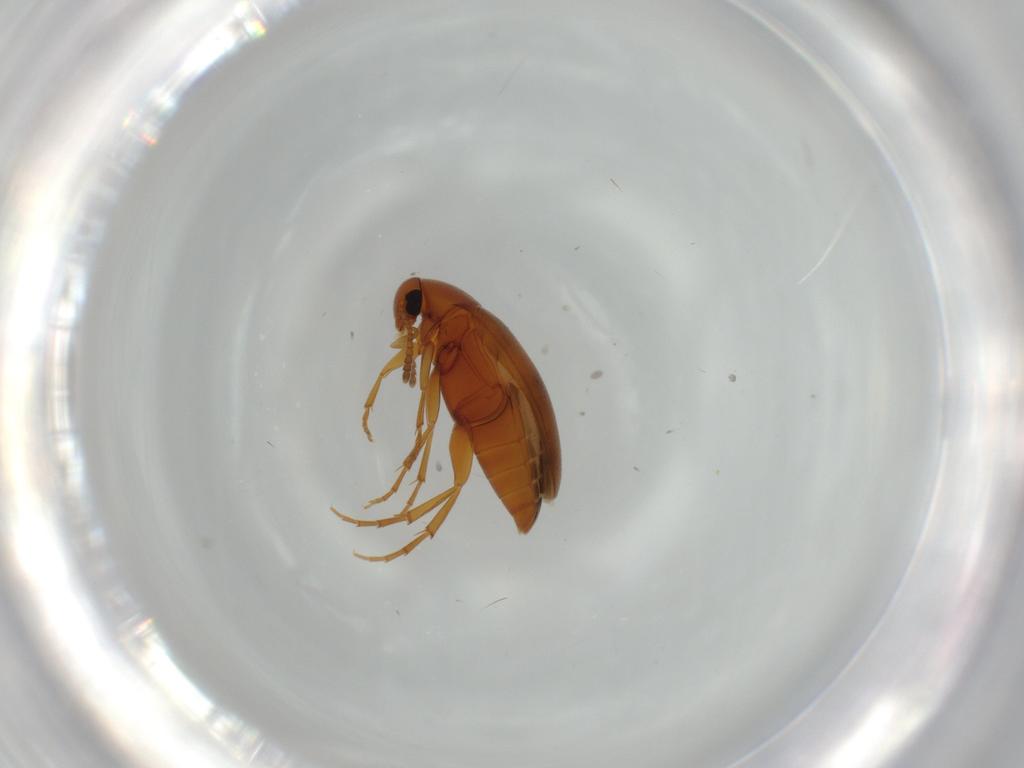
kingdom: Animalia
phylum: Arthropoda
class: Insecta
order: Coleoptera
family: Scraptiidae
